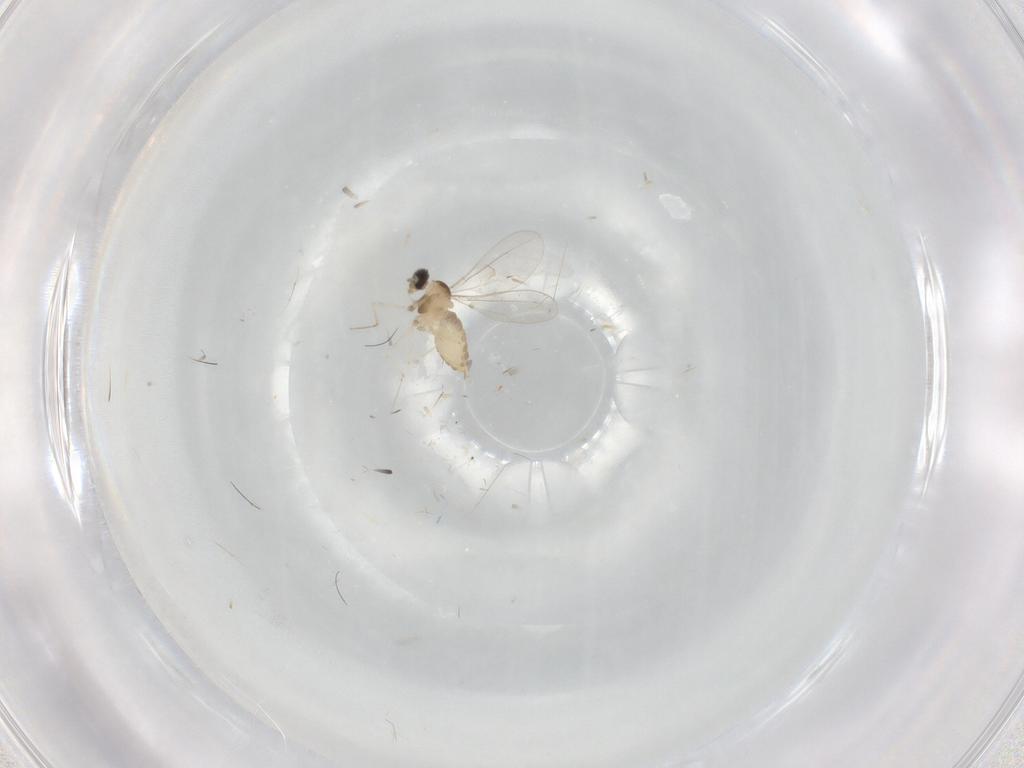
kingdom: Animalia
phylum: Arthropoda
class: Insecta
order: Diptera
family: Cecidomyiidae
